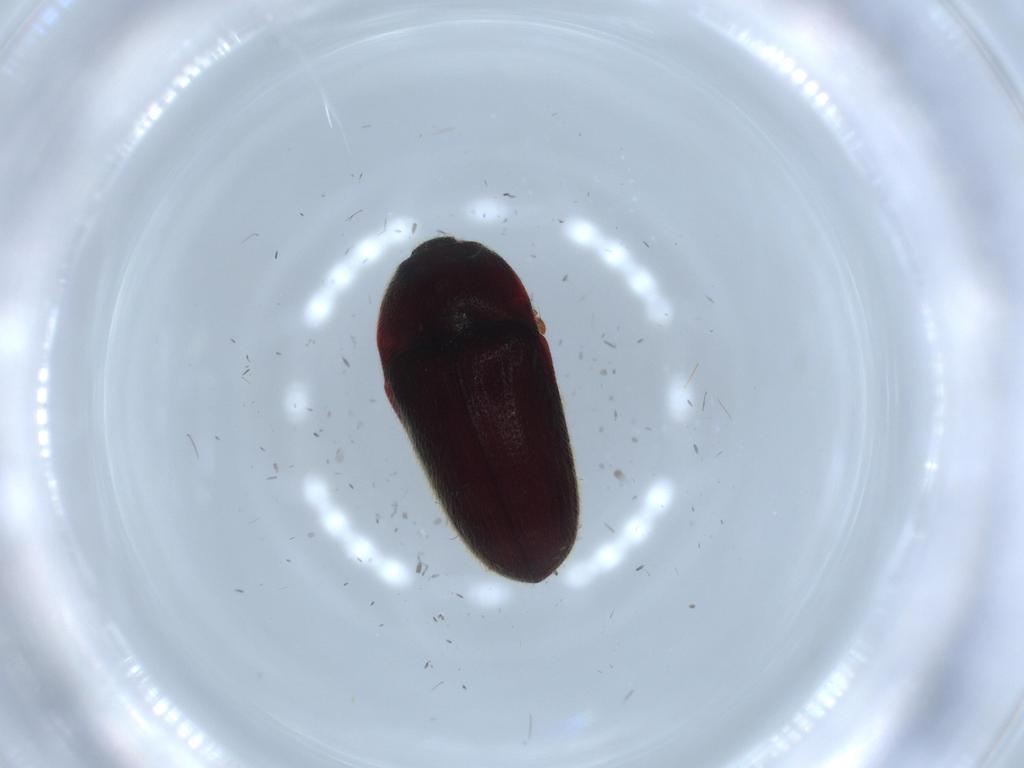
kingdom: Animalia
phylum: Arthropoda
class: Insecta
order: Coleoptera
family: Throscidae
